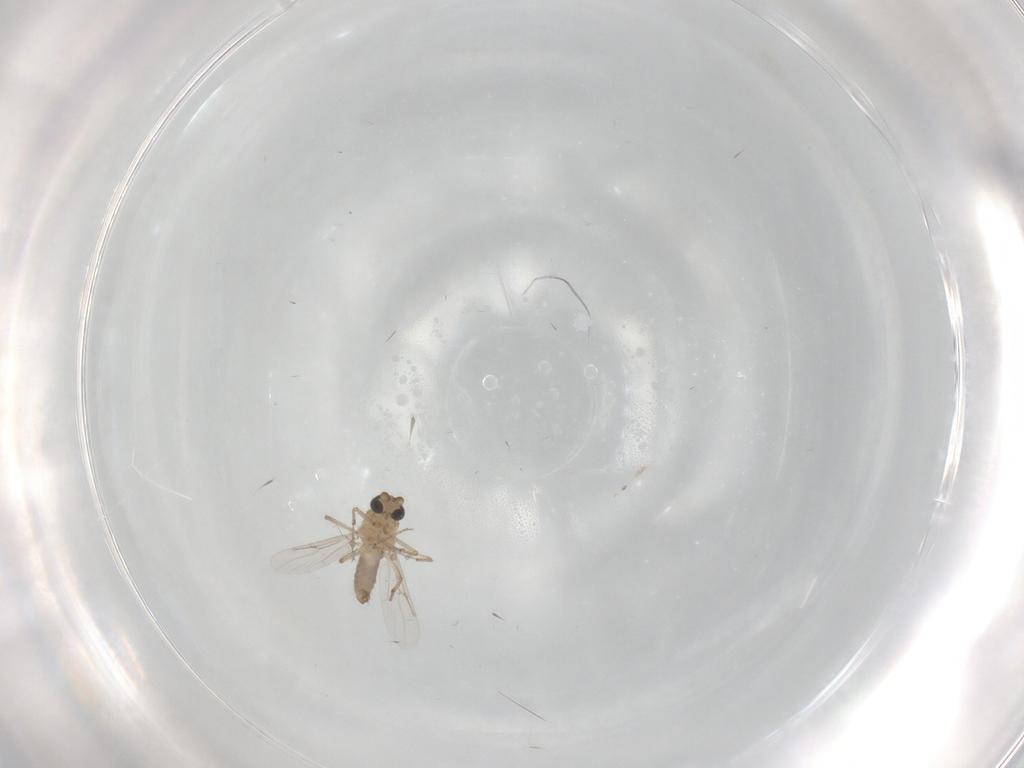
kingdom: Animalia
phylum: Arthropoda
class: Insecta
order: Diptera
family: Ceratopogonidae
